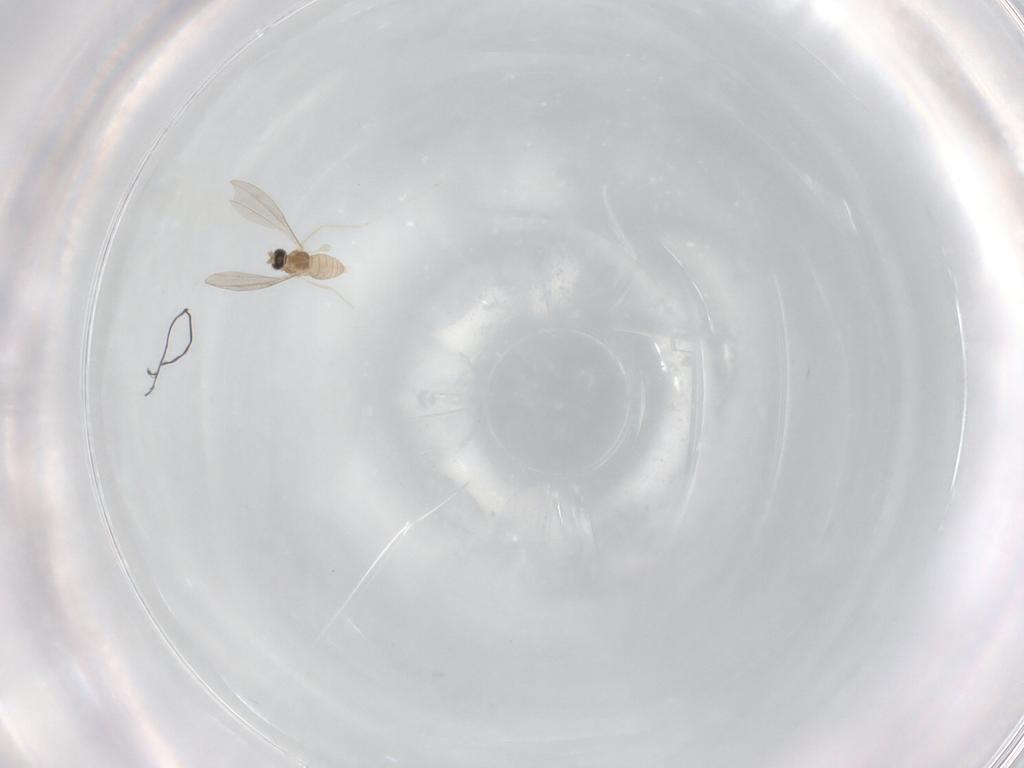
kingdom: Animalia
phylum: Arthropoda
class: Insecta
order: Diptera
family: Cecidomyiidae
